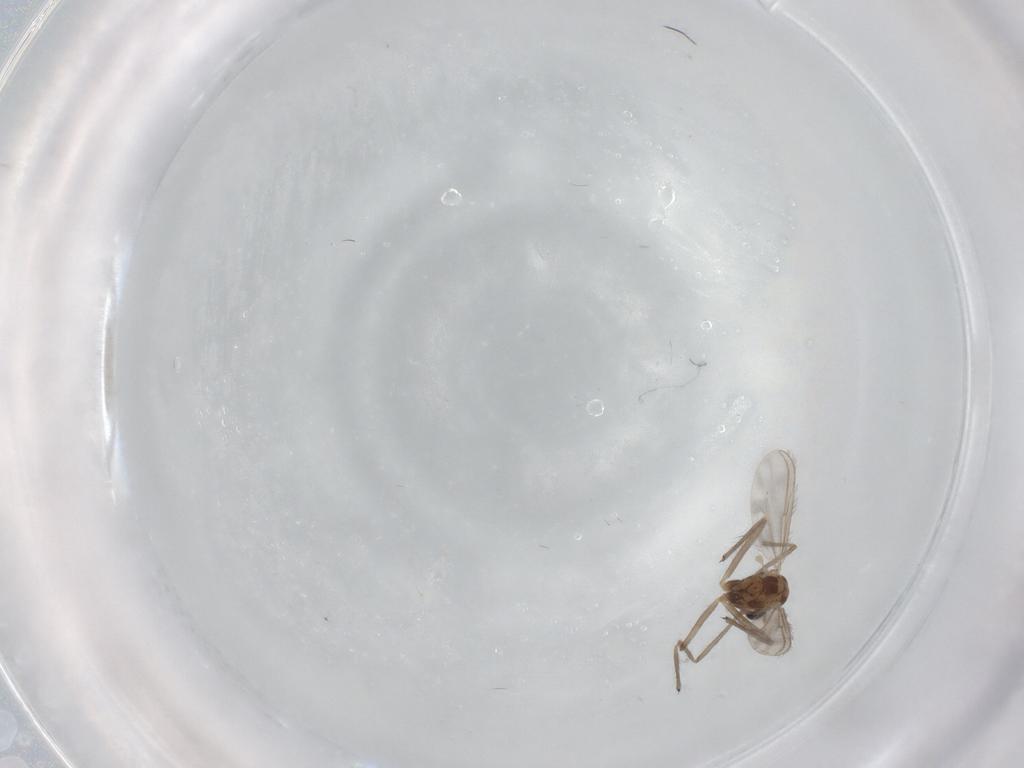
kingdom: Animalia
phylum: Arthropoda
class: Insecta
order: Diptera
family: Chironomidae
